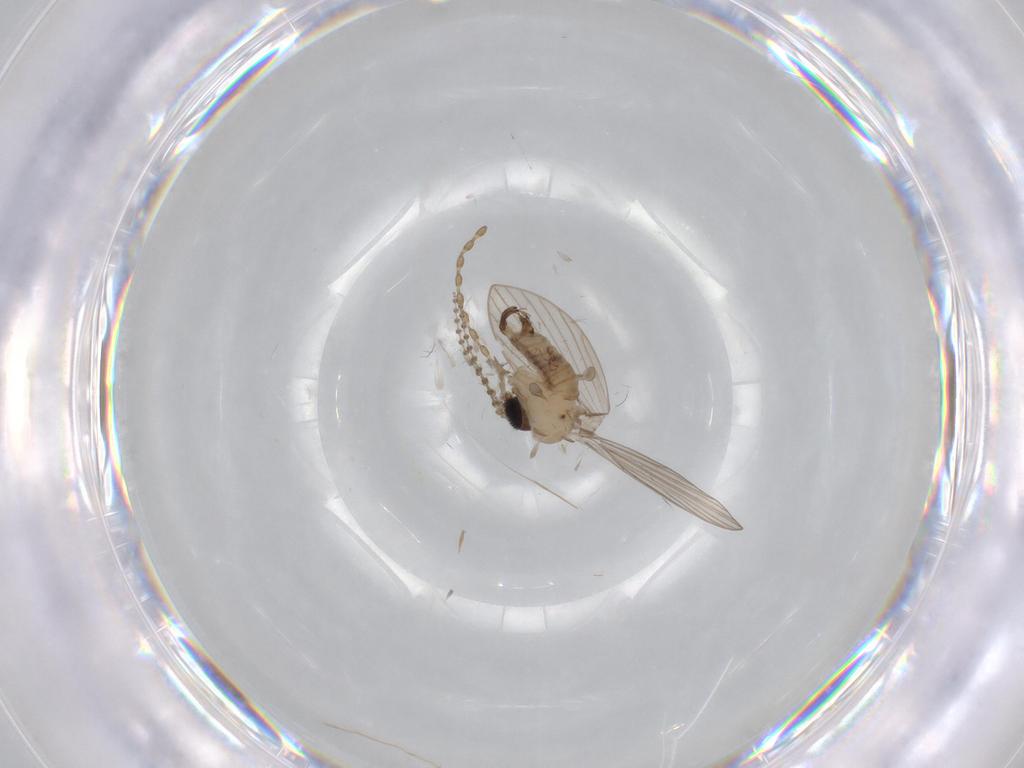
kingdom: Animalia
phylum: Arthropoda
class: Insecta
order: Diptera
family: Psychodidae
